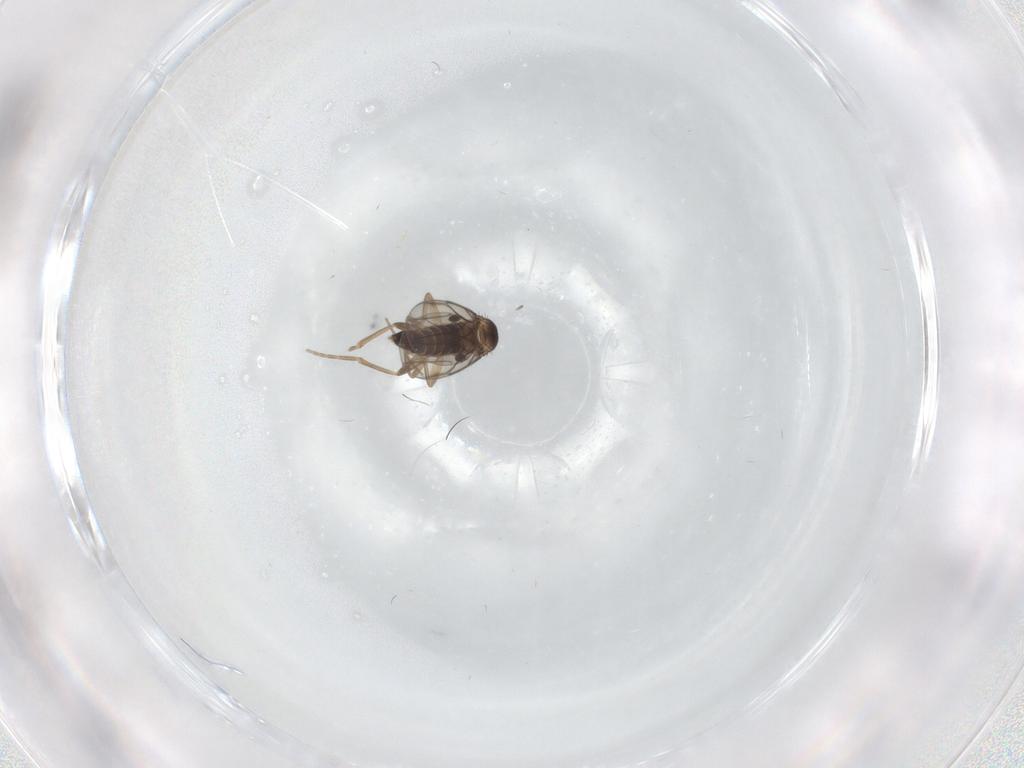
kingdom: Animalia
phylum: Arthropoda
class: Insecta
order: Diptera
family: Phoridae
